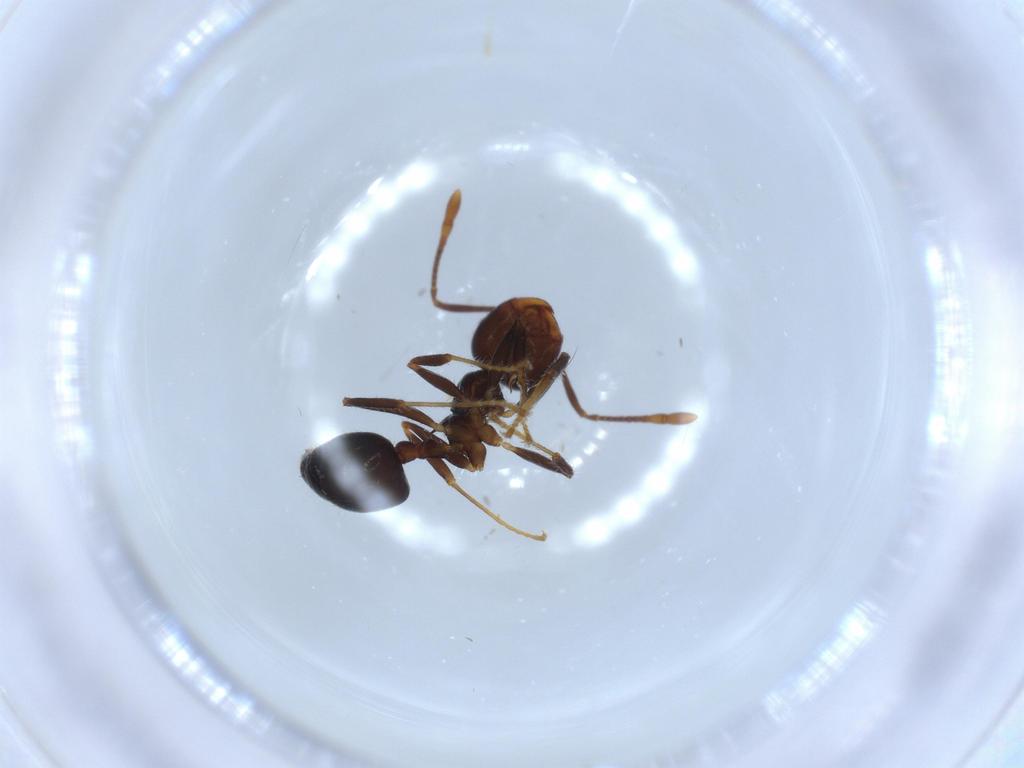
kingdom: Animalia
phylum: Arthropoda
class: Insecta
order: Hymenoptera
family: Formicidae
